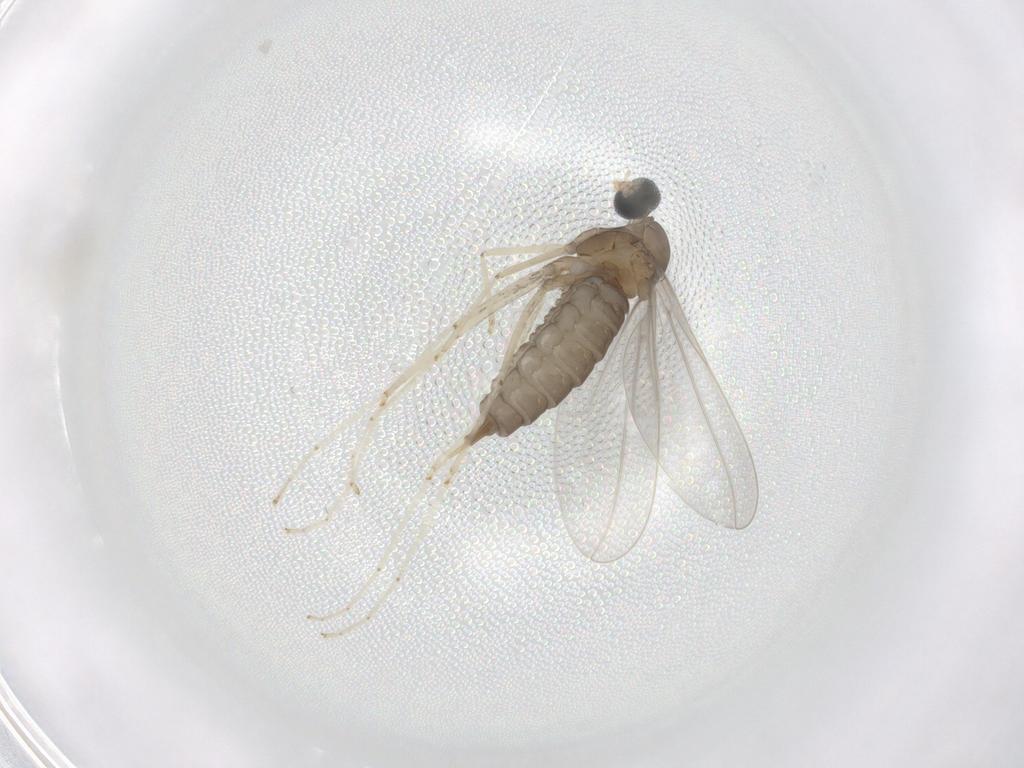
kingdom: Animalia
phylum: Arthropoda
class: Insecta
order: Diptera
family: Cecidomyiidae
